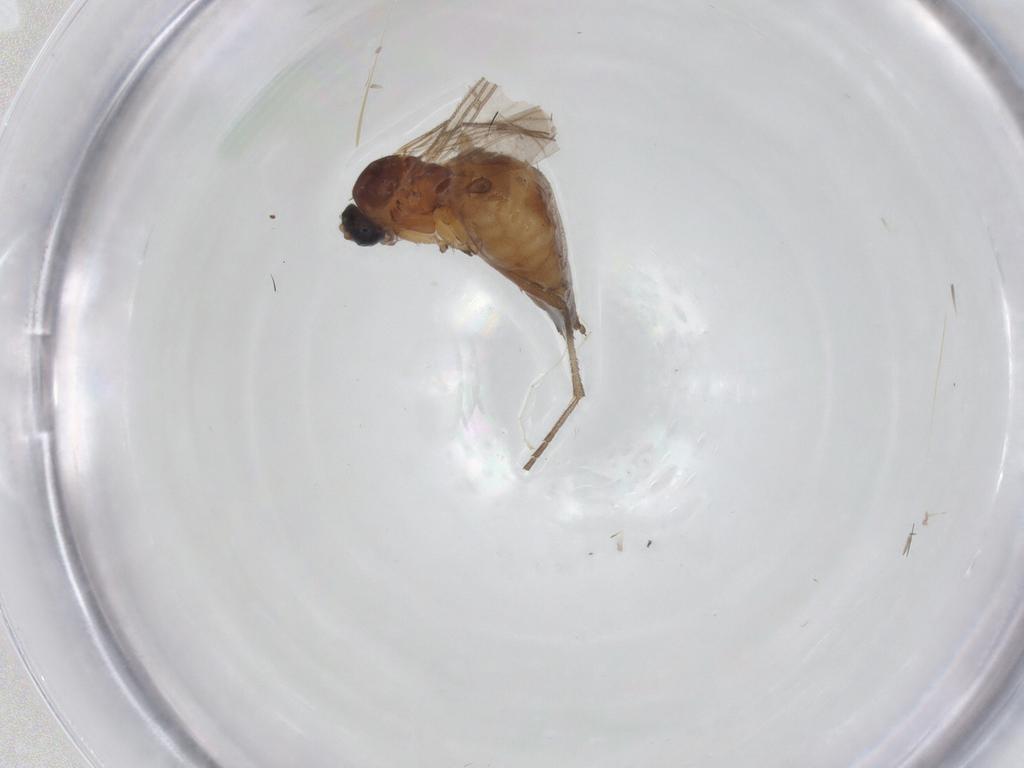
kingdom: Animalia
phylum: Arthropoda
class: Insecta
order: Diptera
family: Sciaridae
